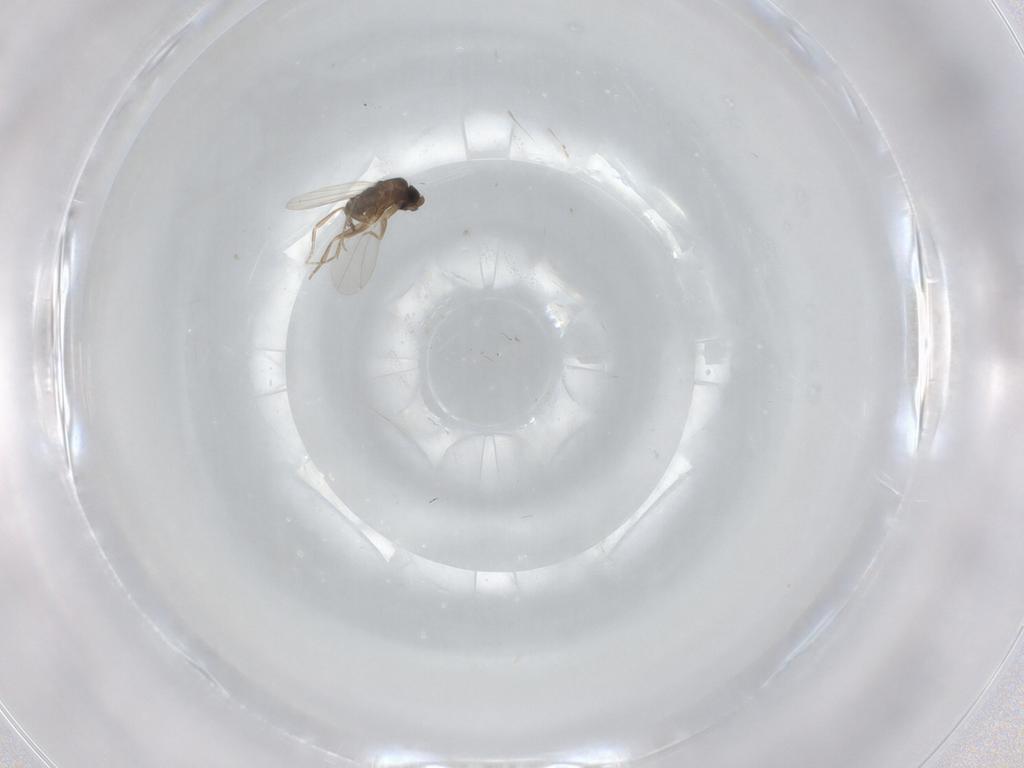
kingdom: Animalia
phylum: Arthropoda
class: Insecta
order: Diptera
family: Phoridae
